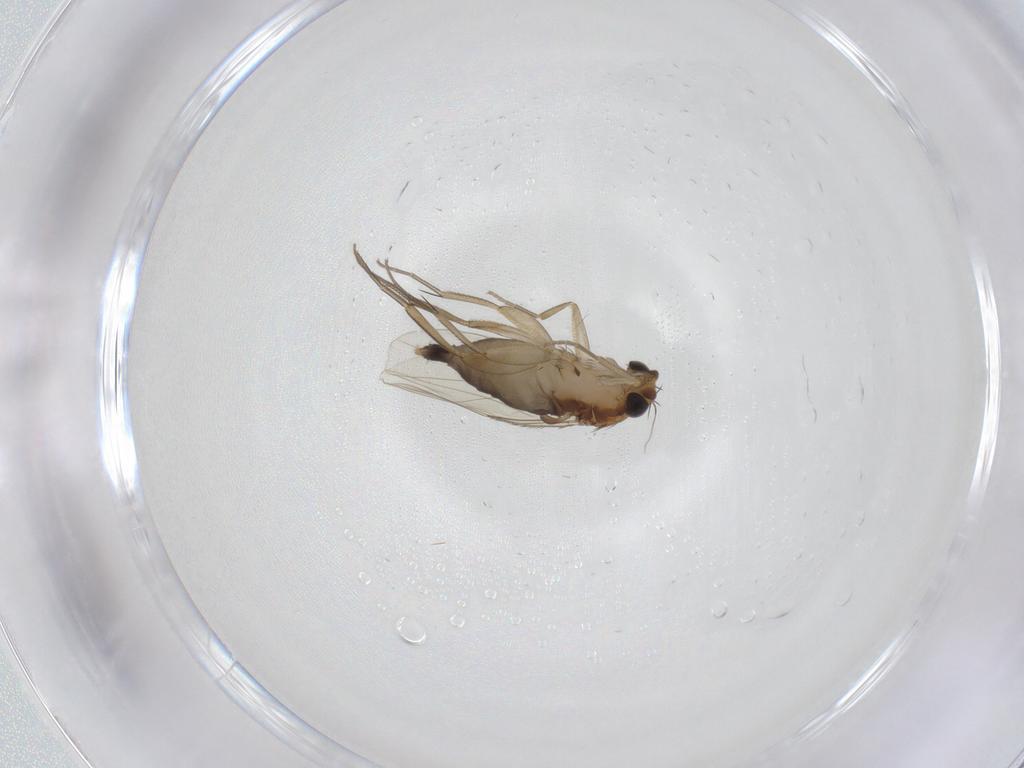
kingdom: Animalia
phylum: Arthropoda
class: Insecta
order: Diptera
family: Phoridae
